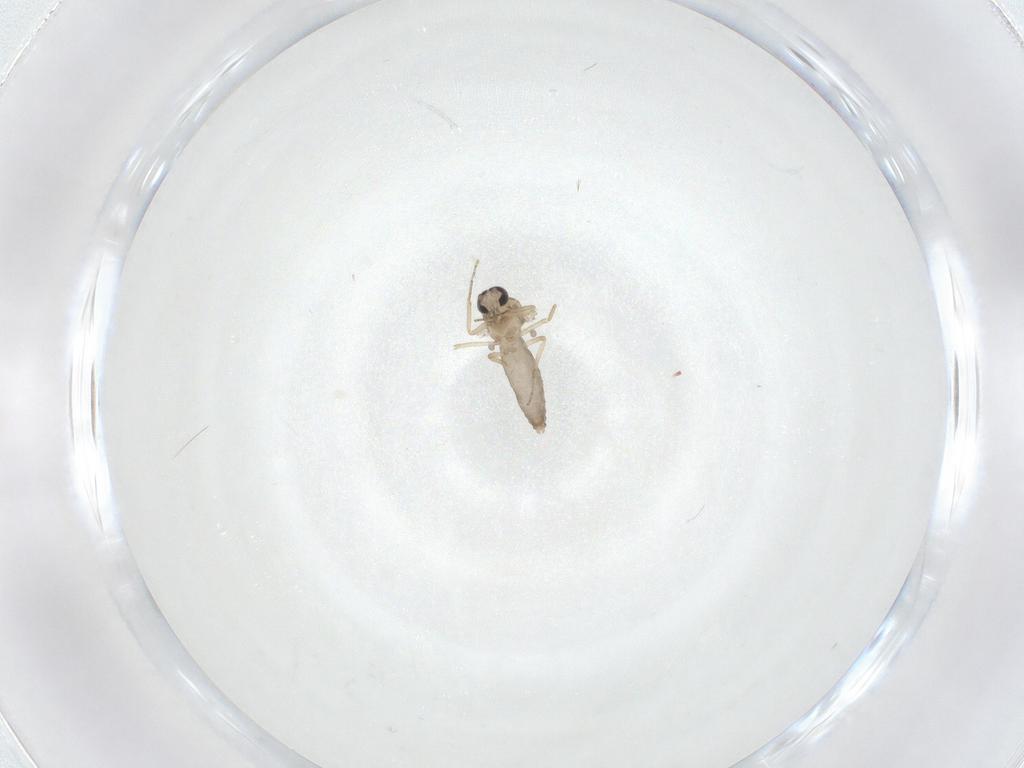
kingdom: Animalia
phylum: Arthropoda
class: Insecta
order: Diptera
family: Ceratopogonidae
